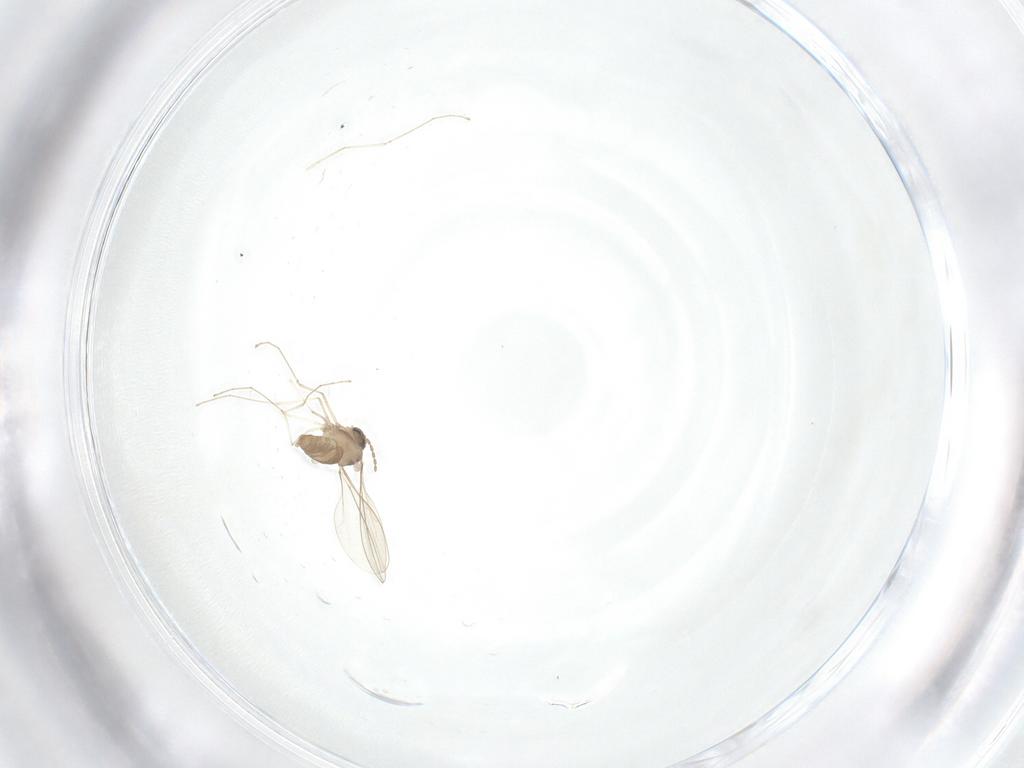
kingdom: Animalia
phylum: Arthropoda
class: Insecta
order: Diptera
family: Cecidomyiidae
